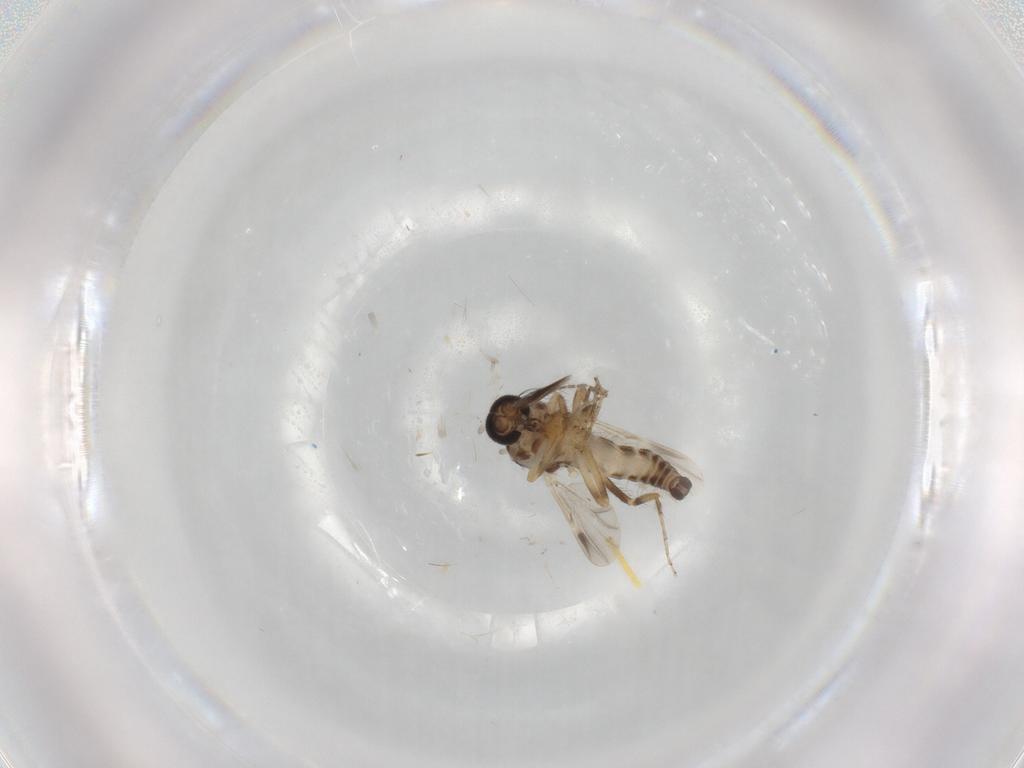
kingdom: Animalia
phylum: Arthropoda
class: Insecta
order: Diptera
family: Ceratopogonidae
